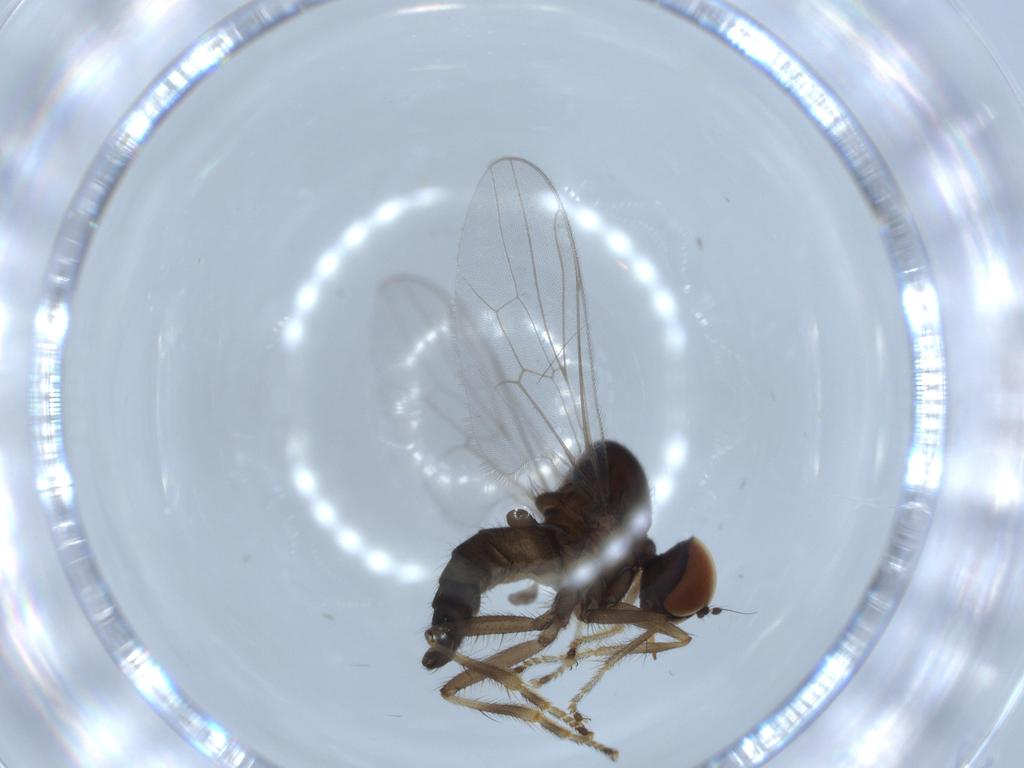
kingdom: Animalia
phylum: Arthropoda
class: Insecta
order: Diptera
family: Hybotidae
